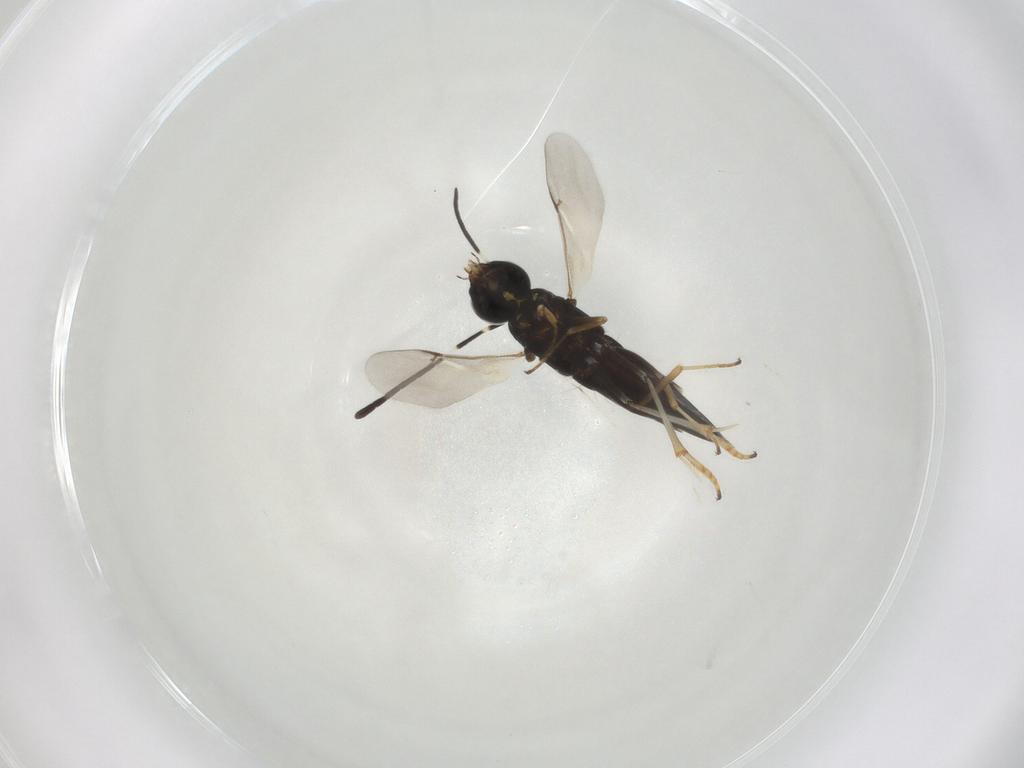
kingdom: Animalia
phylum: Arthropoda
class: Insecta
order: Hymenoptera
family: Encyrtidae
